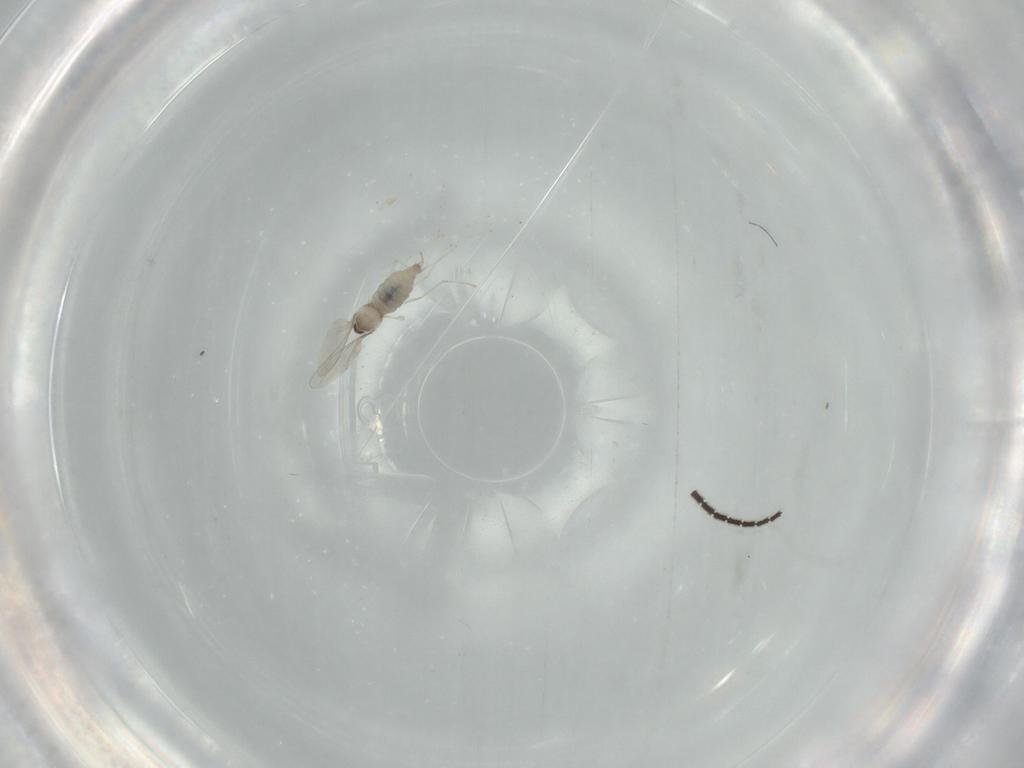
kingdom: Animalia
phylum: Arthropoda
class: Insecta
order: Diptera
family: Cecidomyiidae
